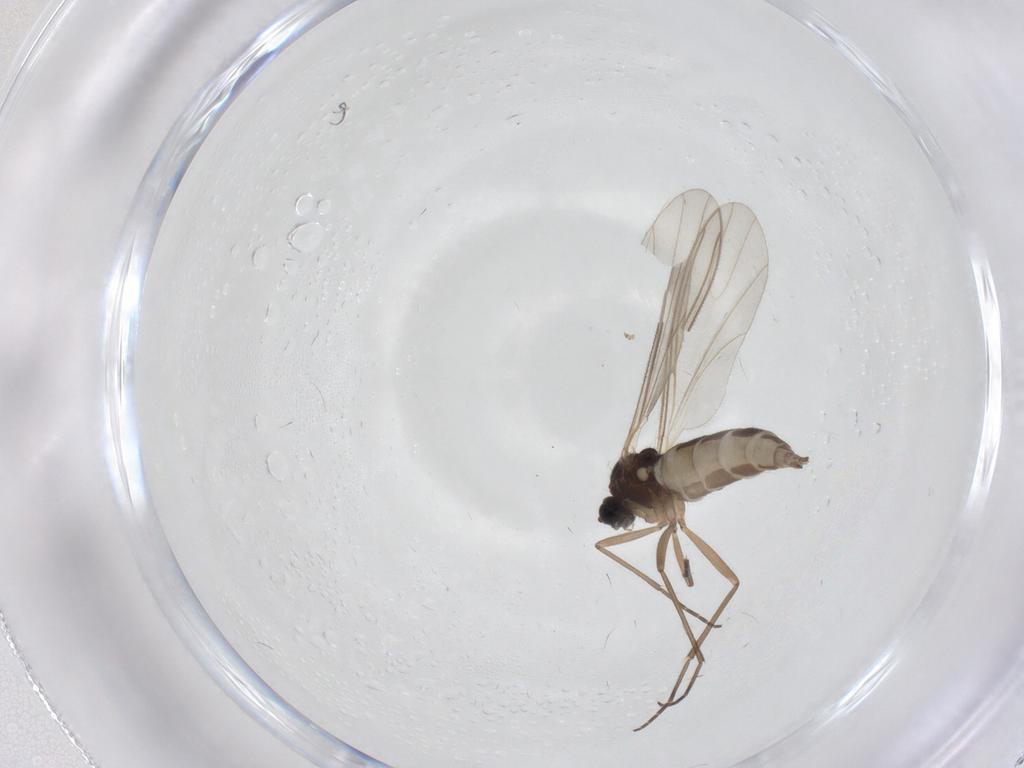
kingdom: Animalia
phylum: Arthropoda
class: Insecta
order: Diptera
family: Sciaridae
